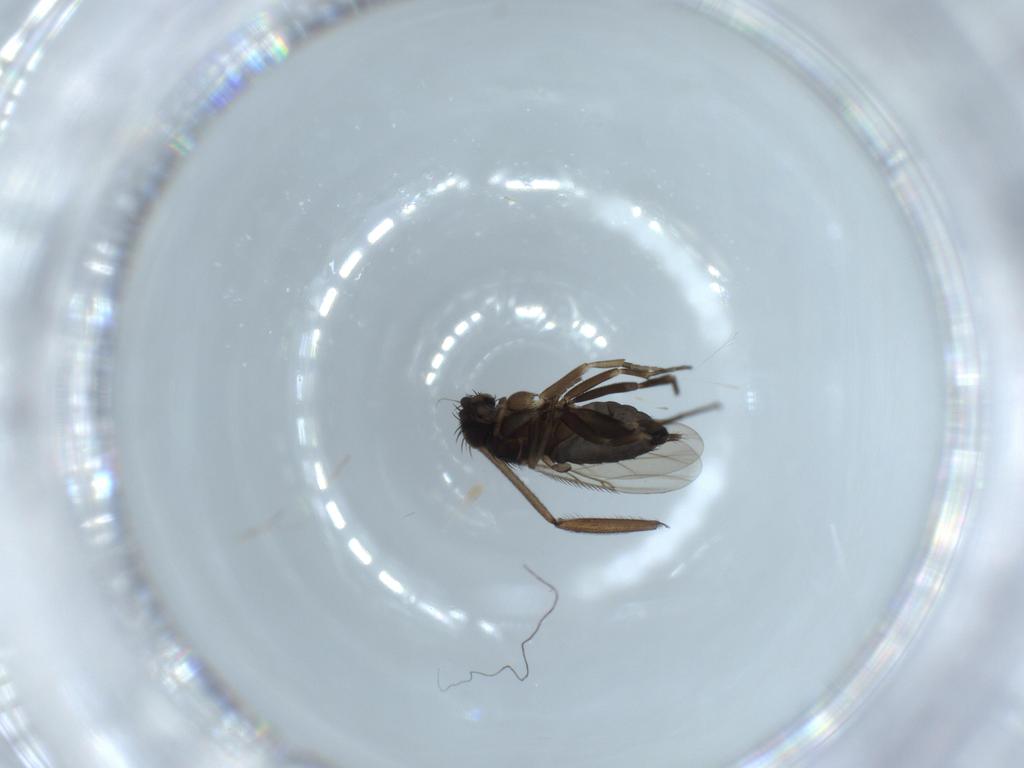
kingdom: Animalia
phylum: Arthropoda
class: Insecta
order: Diptera
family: Phoridae
